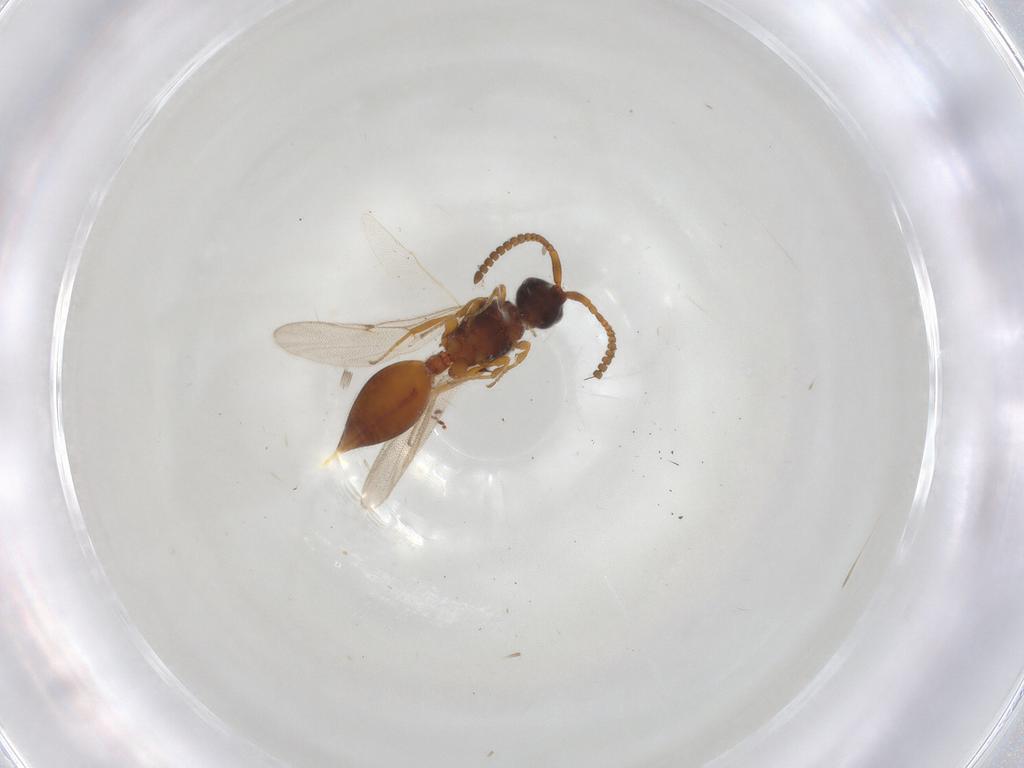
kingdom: Animalia
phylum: Arthropoda
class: Insecta
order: Hymenoptera
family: Diapriidae
